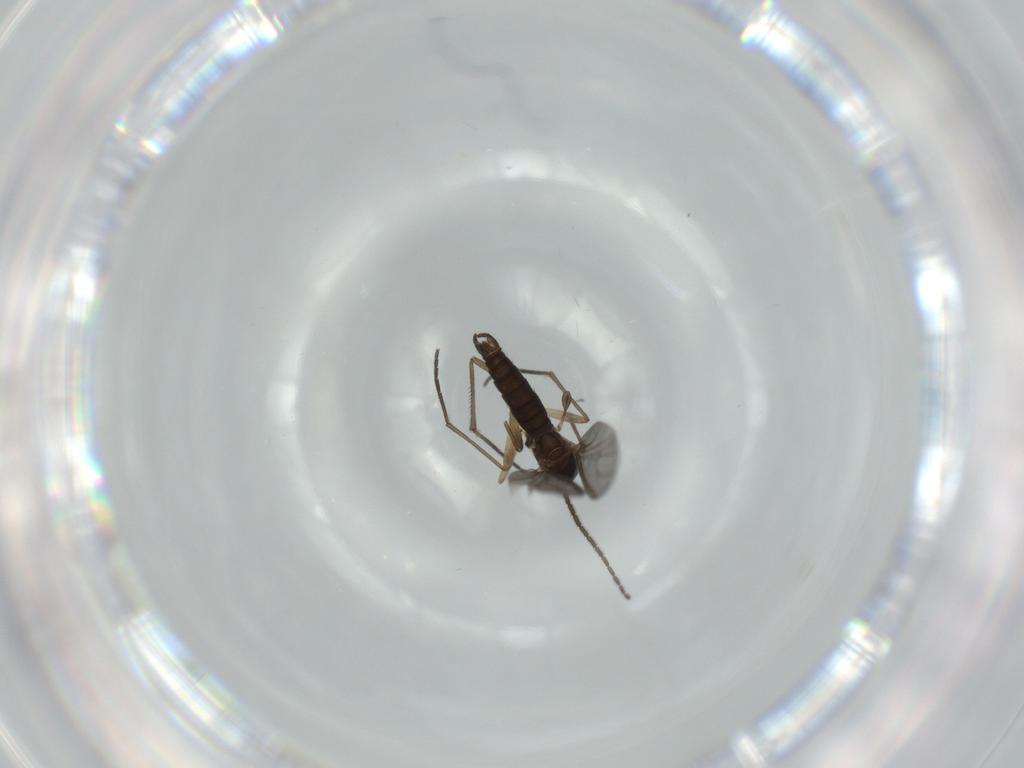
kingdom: Animalia
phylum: Arthropoda
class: Insecta
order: Diptera
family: Sciaridae
